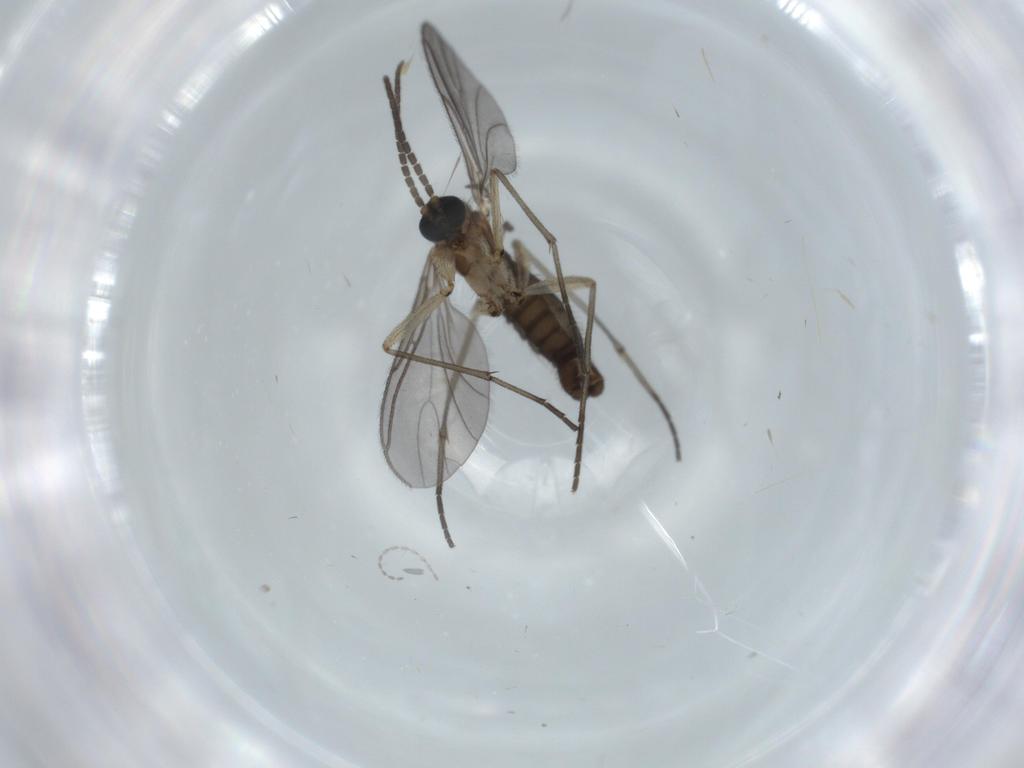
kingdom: Animalia
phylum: Arthropoda
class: Insecta
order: Diptera
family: Sciaridae
